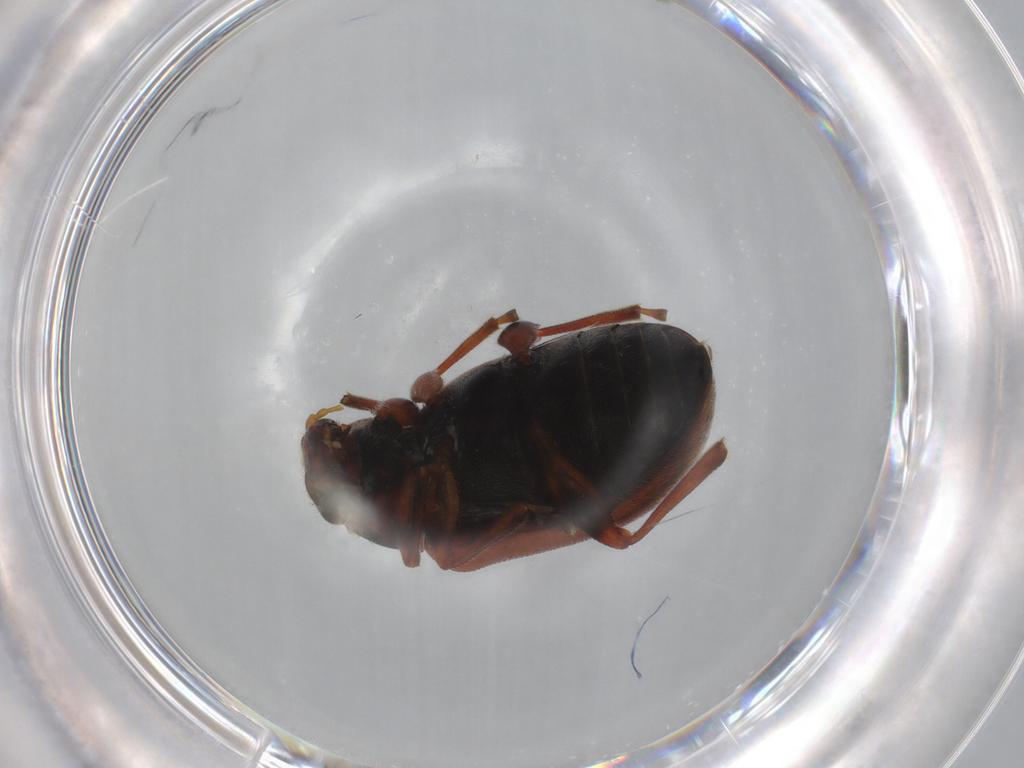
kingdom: Animalia
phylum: Arthropoda
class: Insecta
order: Coleoptera
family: Chrysomelidae
